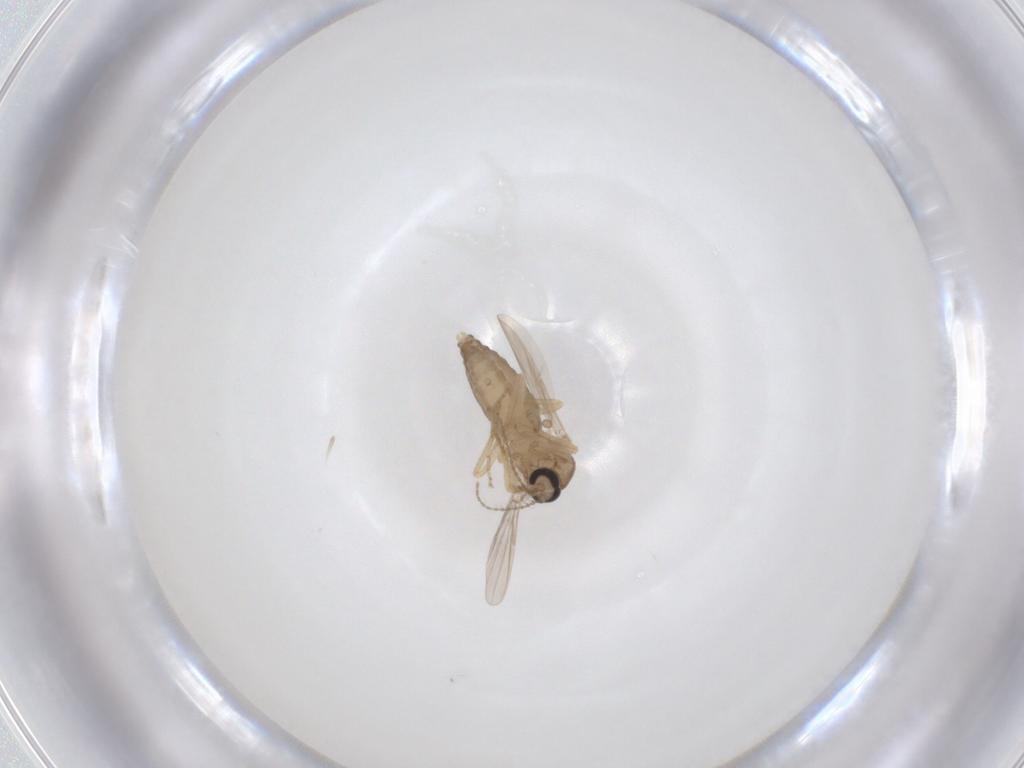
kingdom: Animalia
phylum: Arthropoda
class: Insecta
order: Diptera
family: Ceratopogonidae
